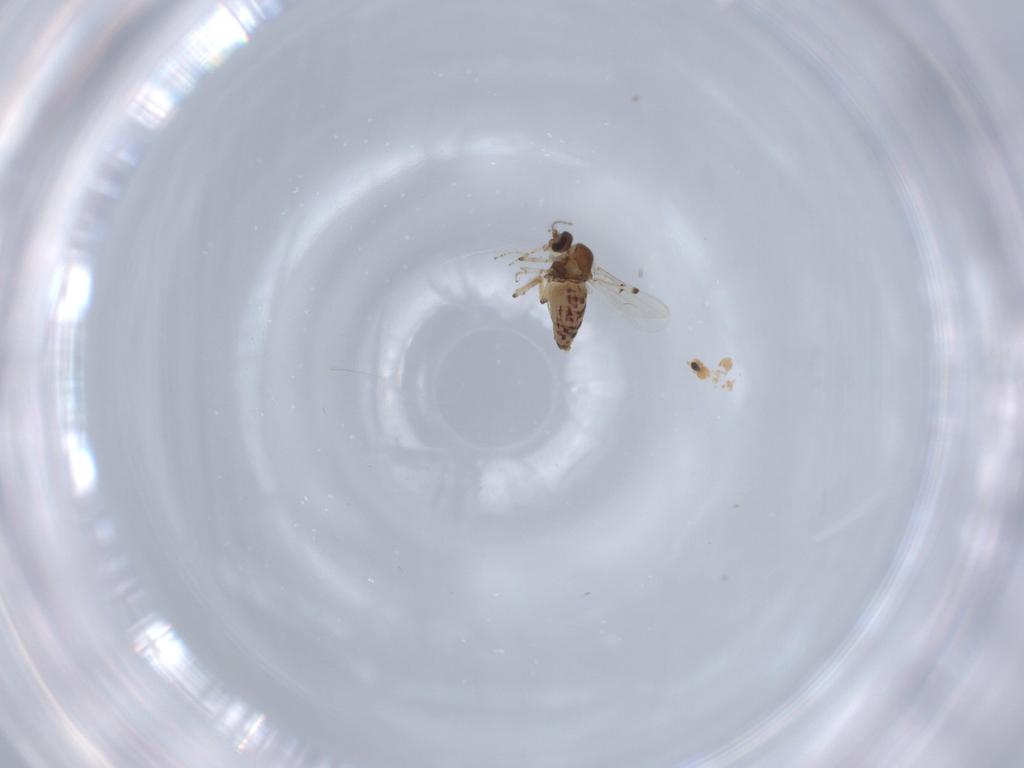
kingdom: Animalia
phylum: Arthropoda
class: Insecta
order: Diptera
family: Ceratopogonidae
